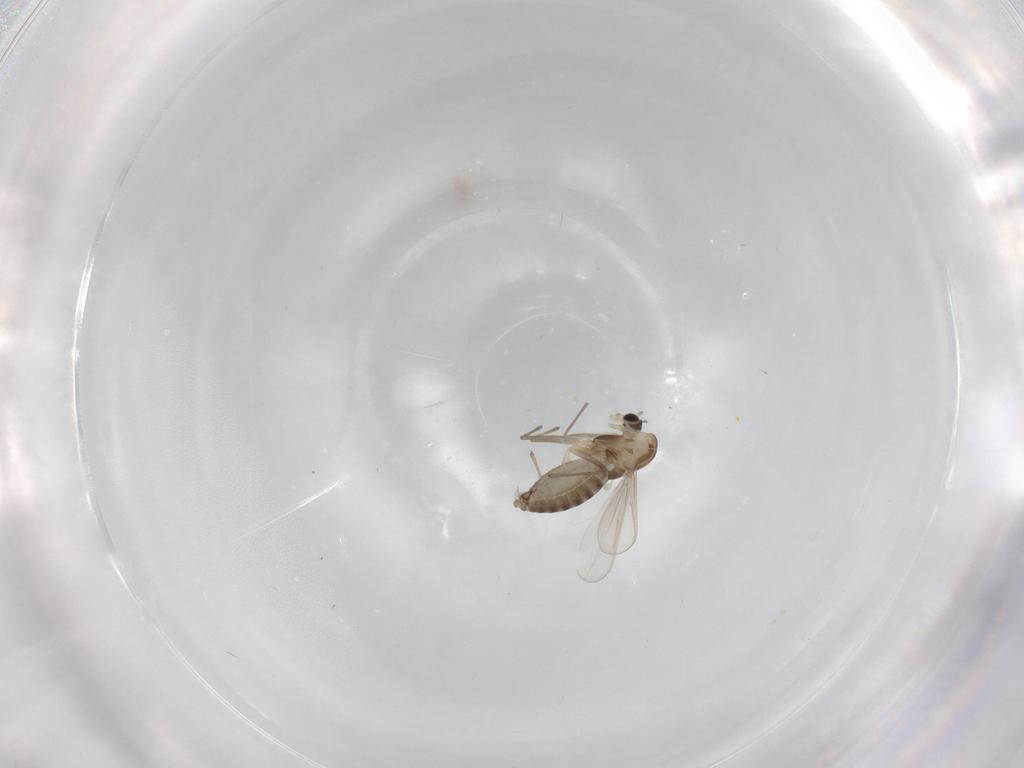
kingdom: Animalia
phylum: Arthropoda
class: Insecta
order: Diptera
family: Chironomidae
